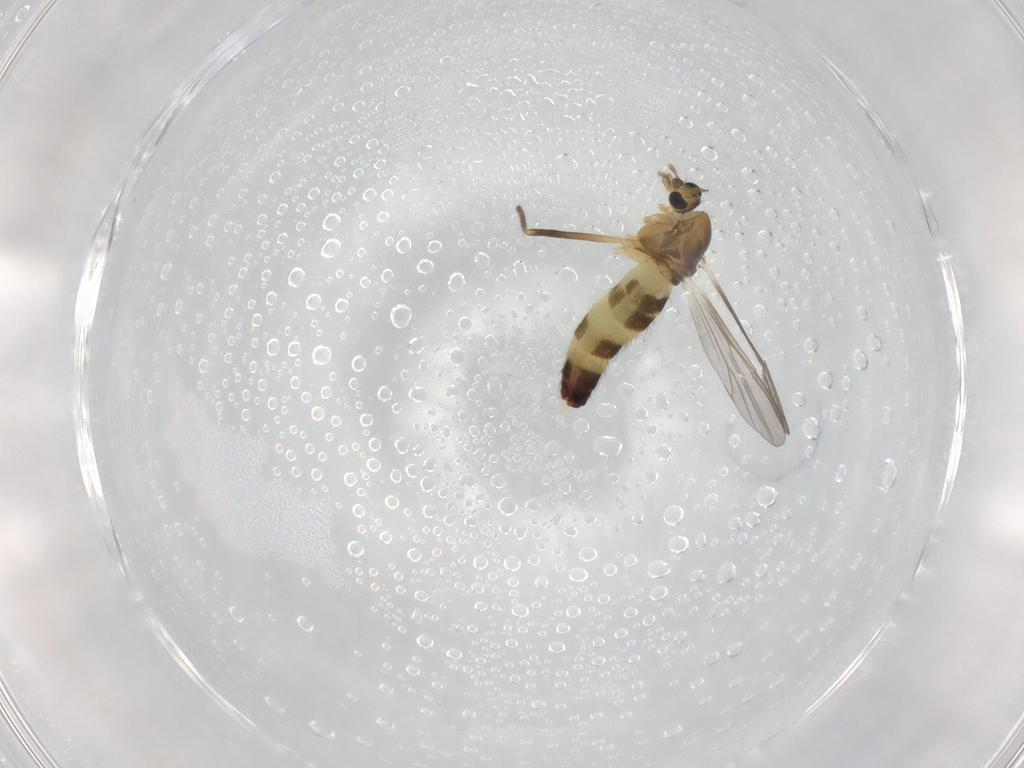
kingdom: Animalia
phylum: Arthropoda
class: Insecta
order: Diptera
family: Chironomidae
